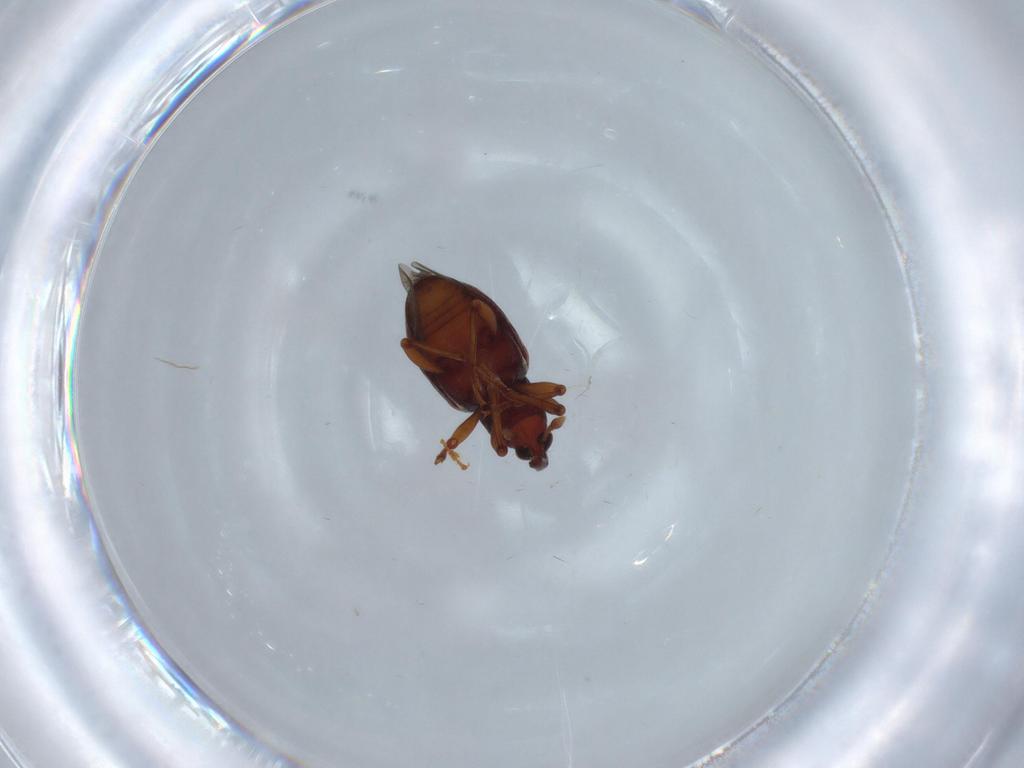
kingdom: Animalia
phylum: Arthropoda
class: Insecta
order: Coleoptera
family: Curculionidae
